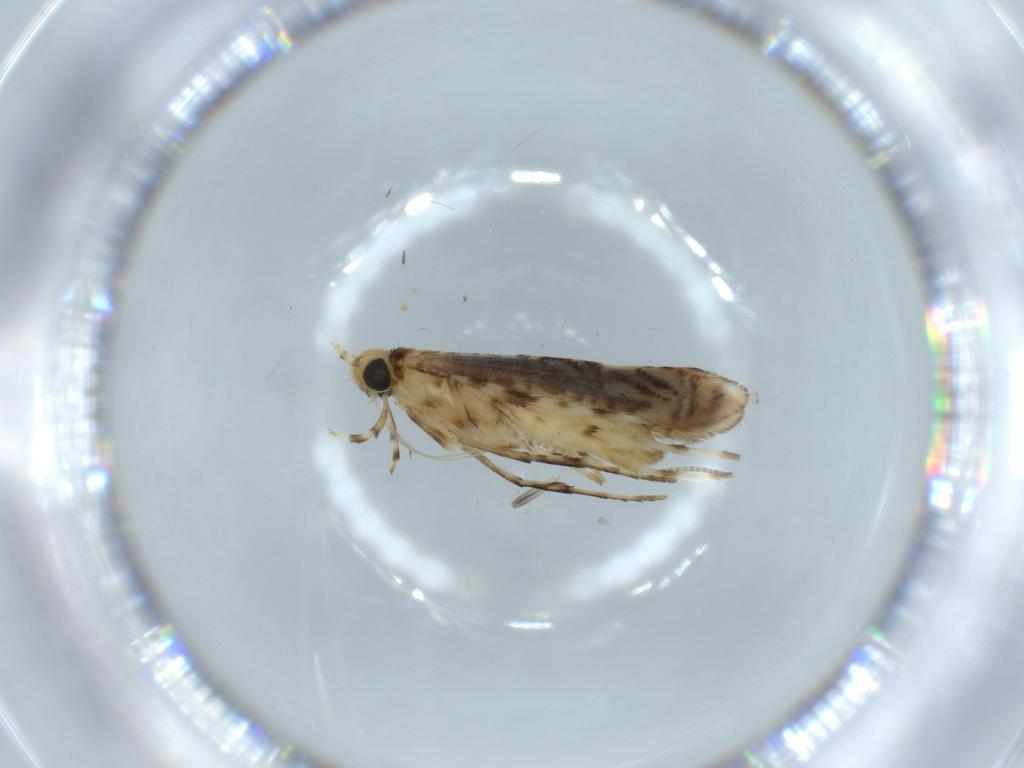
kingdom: Animalia
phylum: Arthropoda
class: Insecta
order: Lepidoptera
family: Gracillariidae
